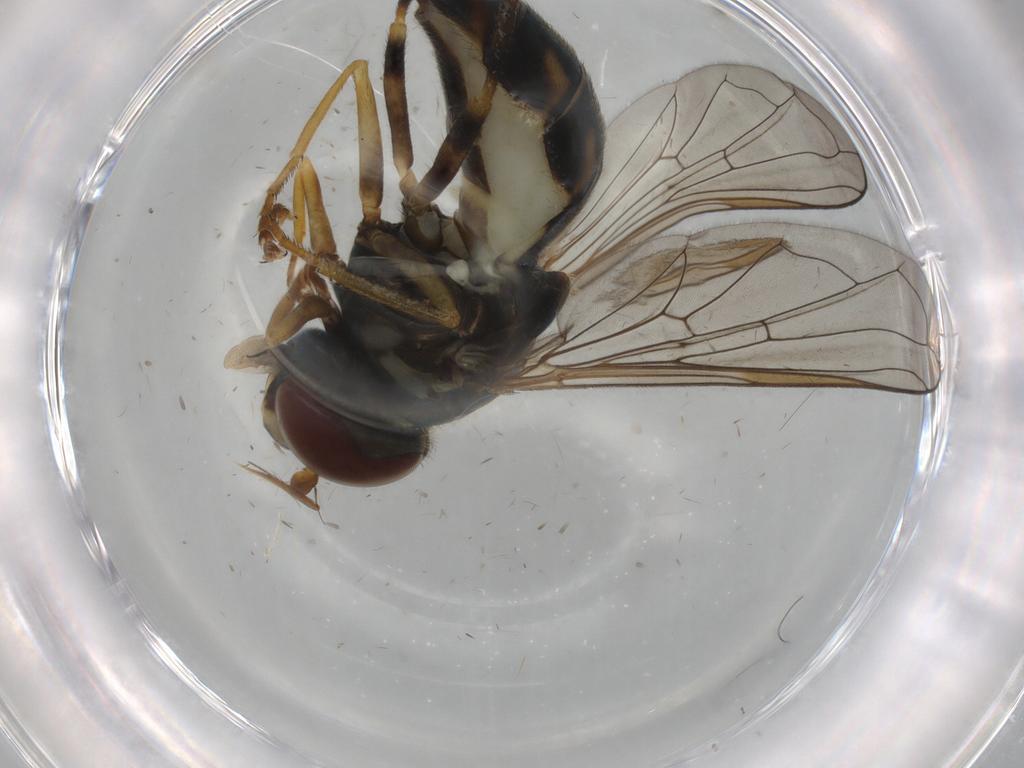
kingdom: Animalia
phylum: Arthropoda
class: Insecta
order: Diptera
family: Syrphidae
